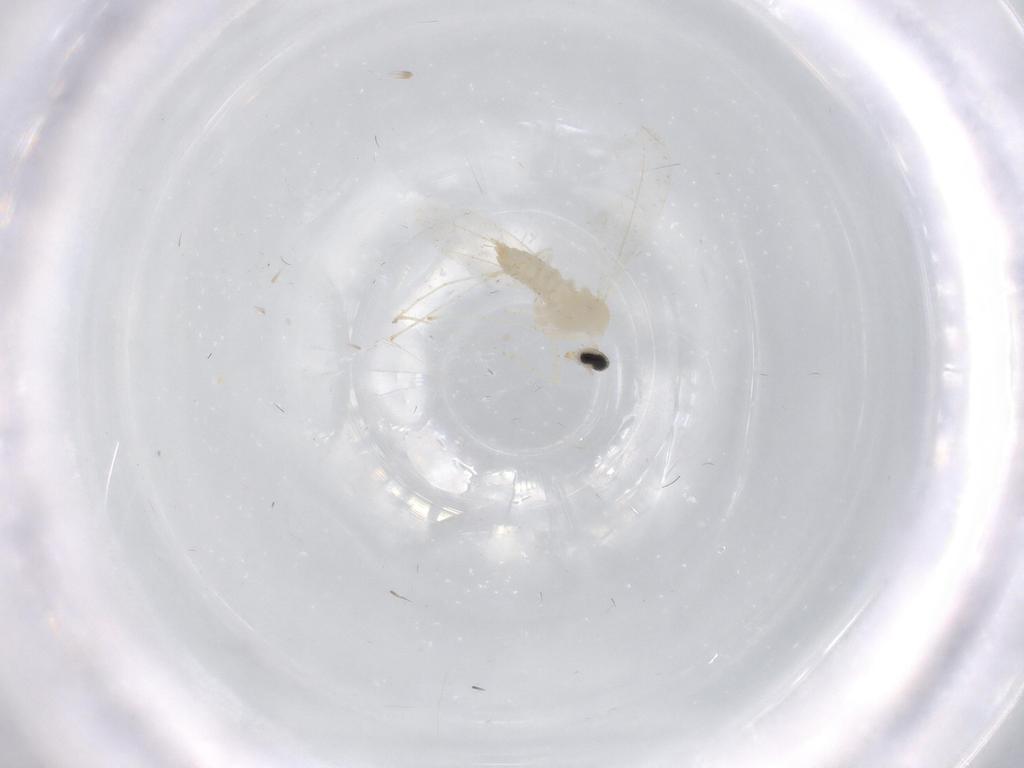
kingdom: Animalia
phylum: Arthropoda
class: Insecta
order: Diptera
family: Cecidomyiidae
